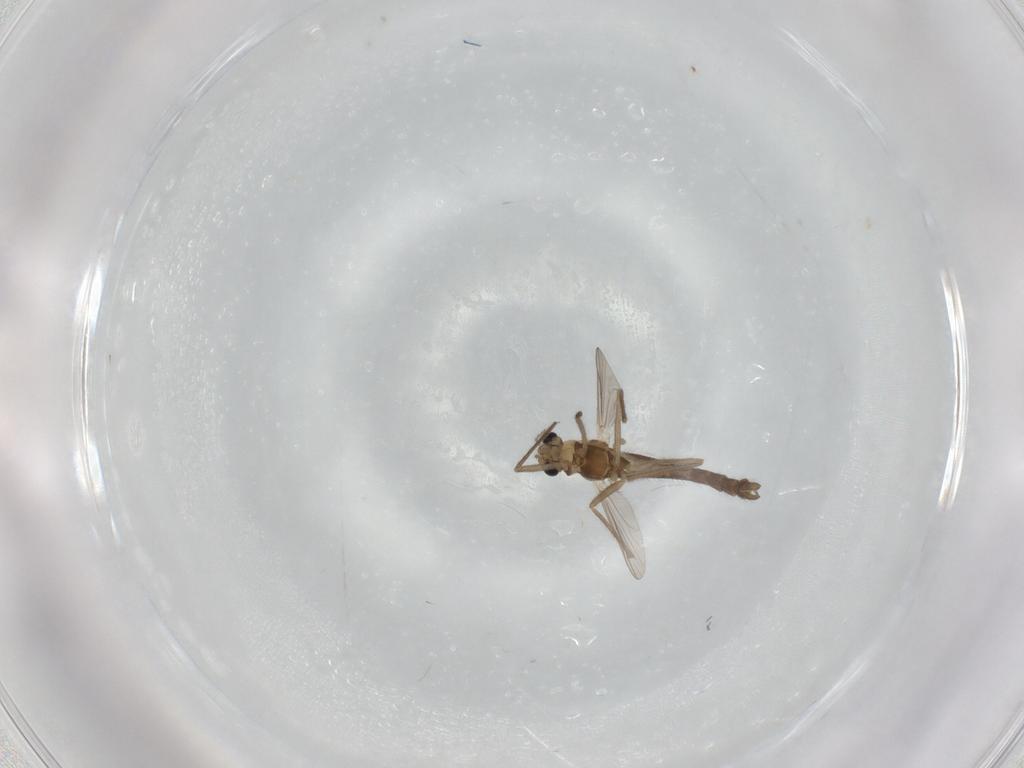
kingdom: Animalia
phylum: Arthropoda
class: Insecta
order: Diptera
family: Chironomidae
